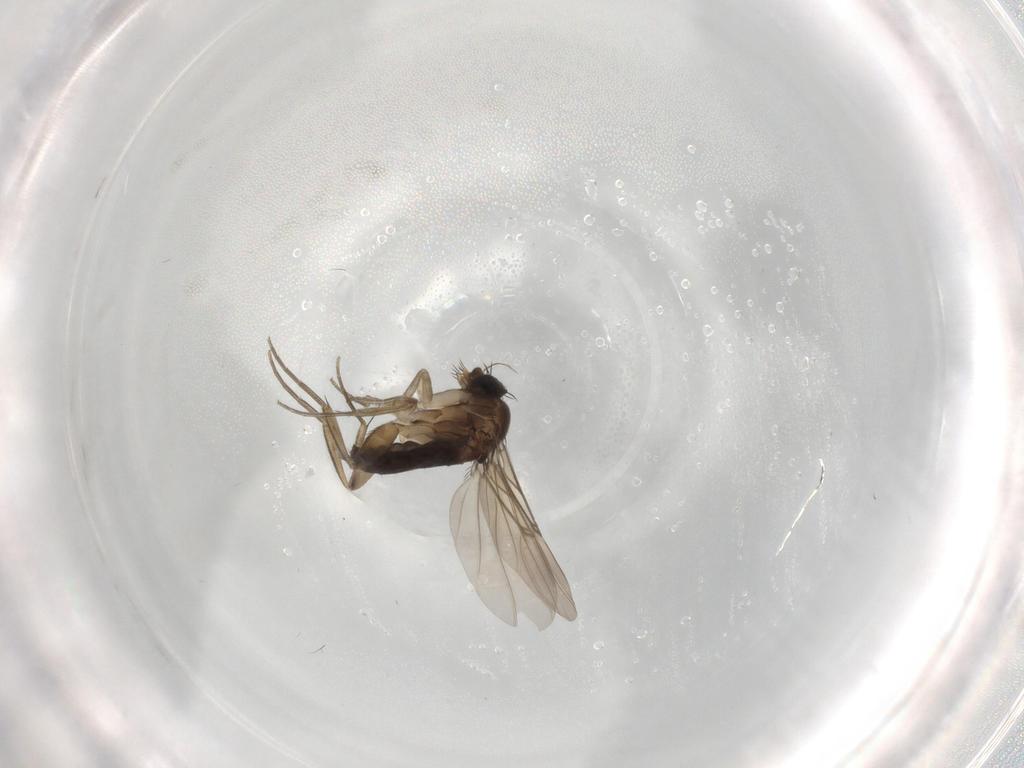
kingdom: Animalia
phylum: Arthropoda
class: Insecta
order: Diptera
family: Phoridae
